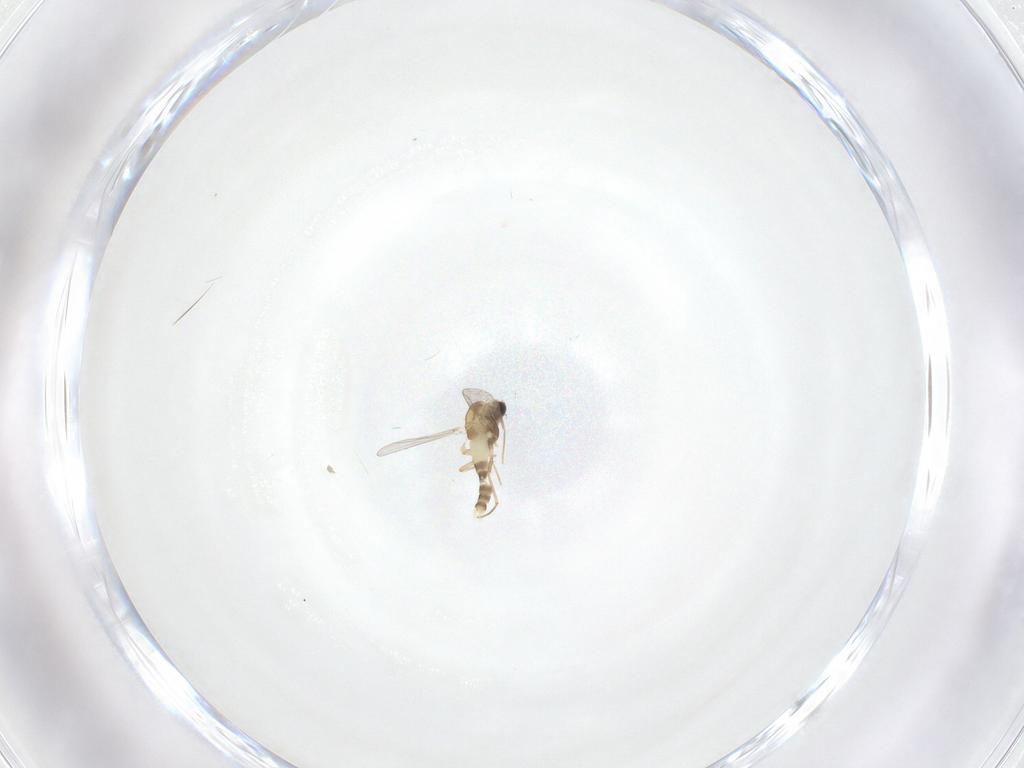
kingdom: Animalia
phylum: Arthropoda
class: Insecta
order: Diptera
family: Chironomidae
